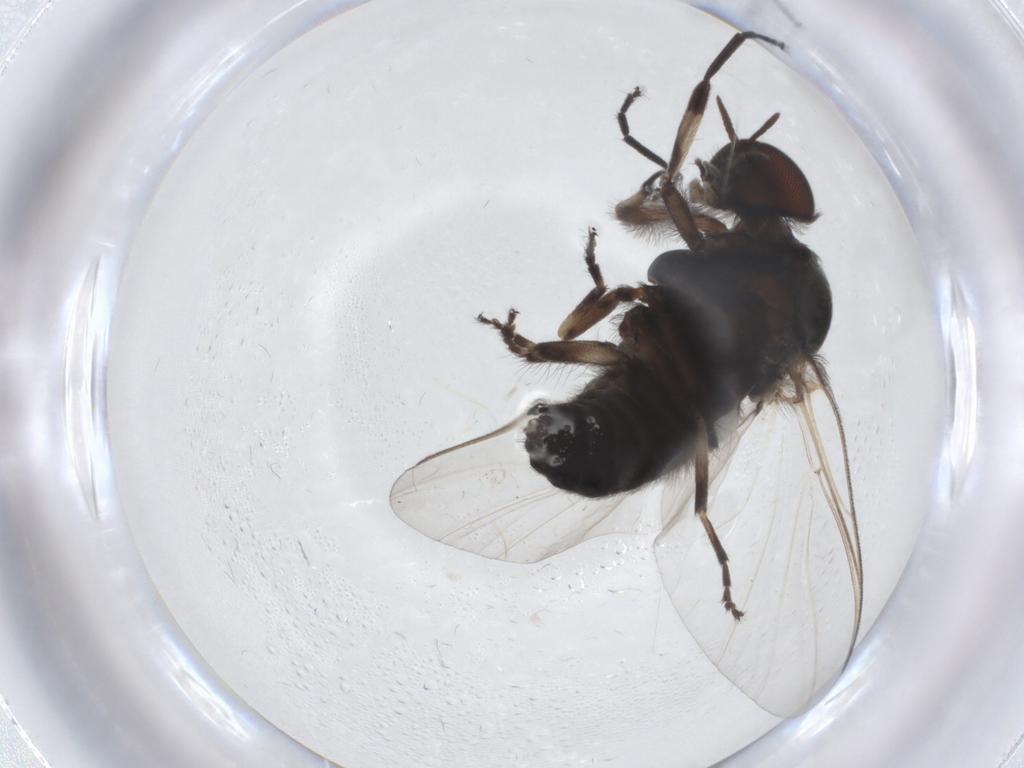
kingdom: Animalia
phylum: Arthropoda
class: Insecta
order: Diptera
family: Simuliidae
